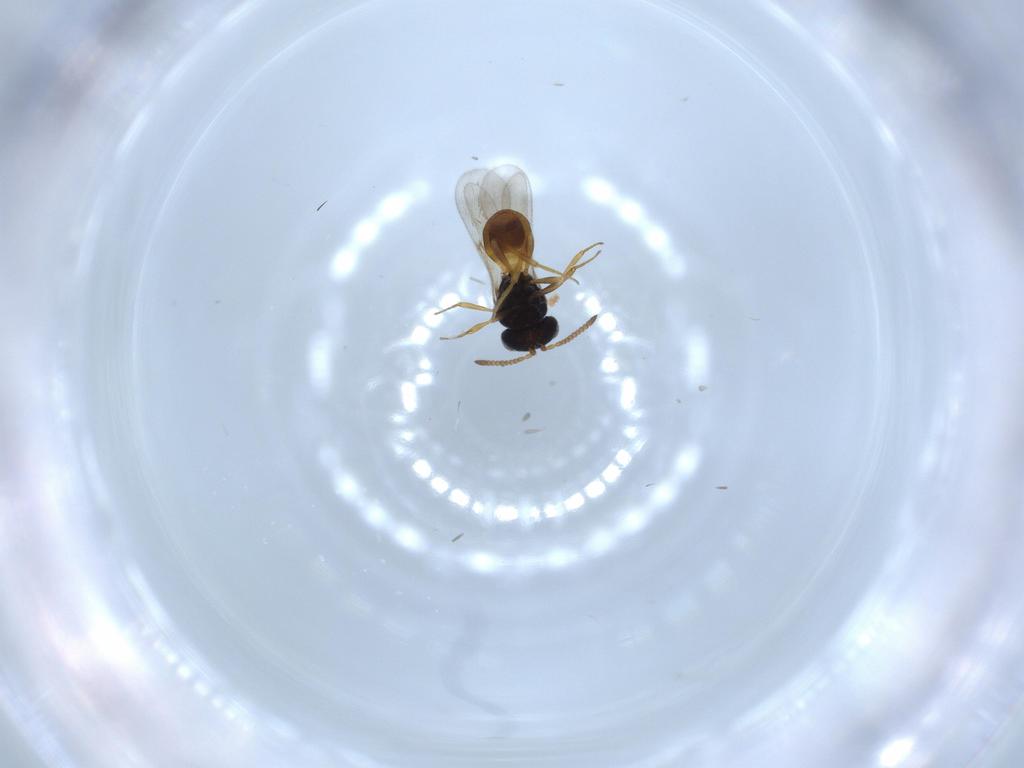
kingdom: Animalia
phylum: Arthropoda
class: Insecta
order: Hymenoptera
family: Scelionidae
